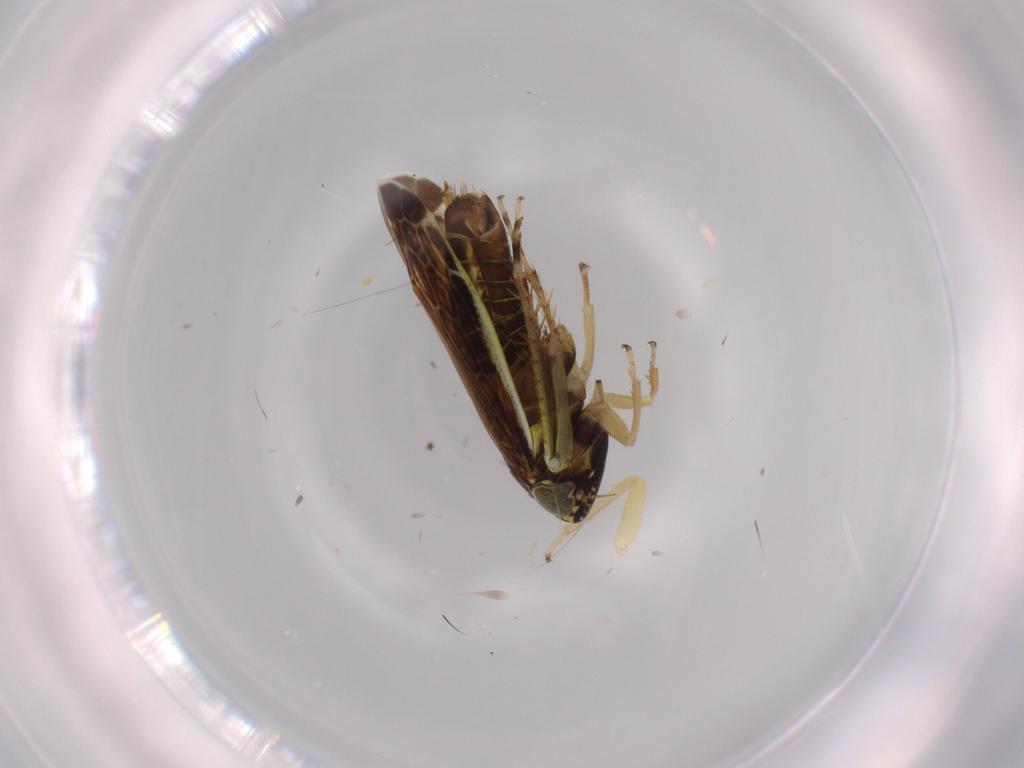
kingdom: Animalia
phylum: Arthropoda
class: Insecta
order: Hemiptera
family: Cicadellidae
